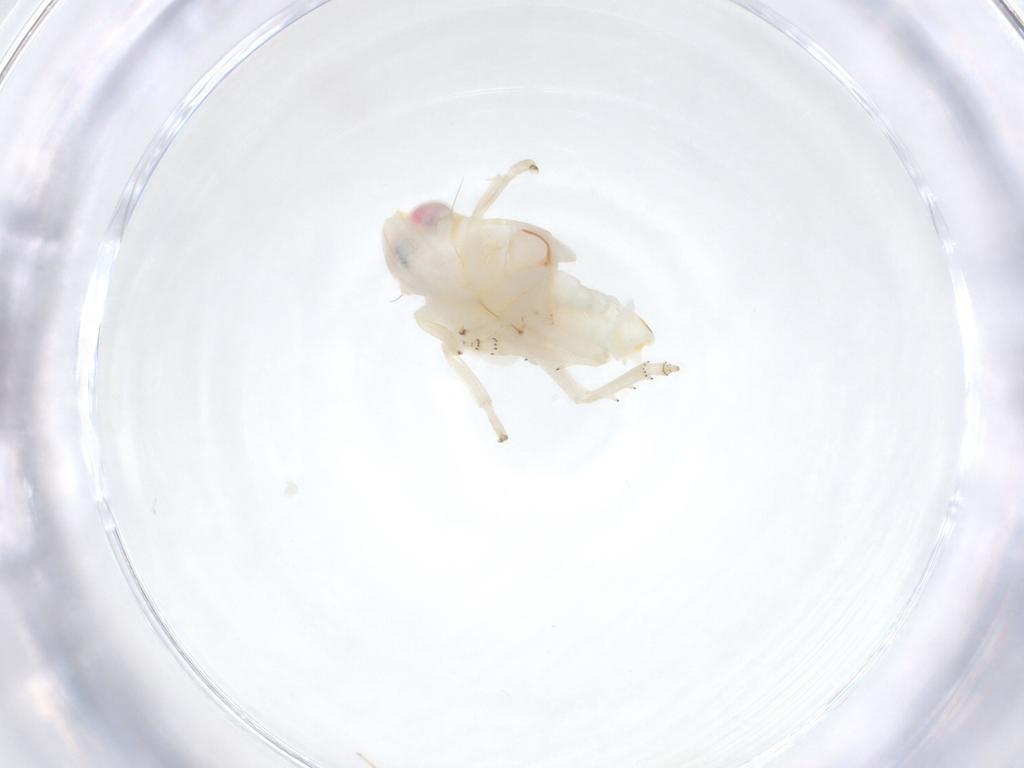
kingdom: Animalia
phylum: Arthropoda
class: Insecta
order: Hemiptera
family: Nogodinidae
